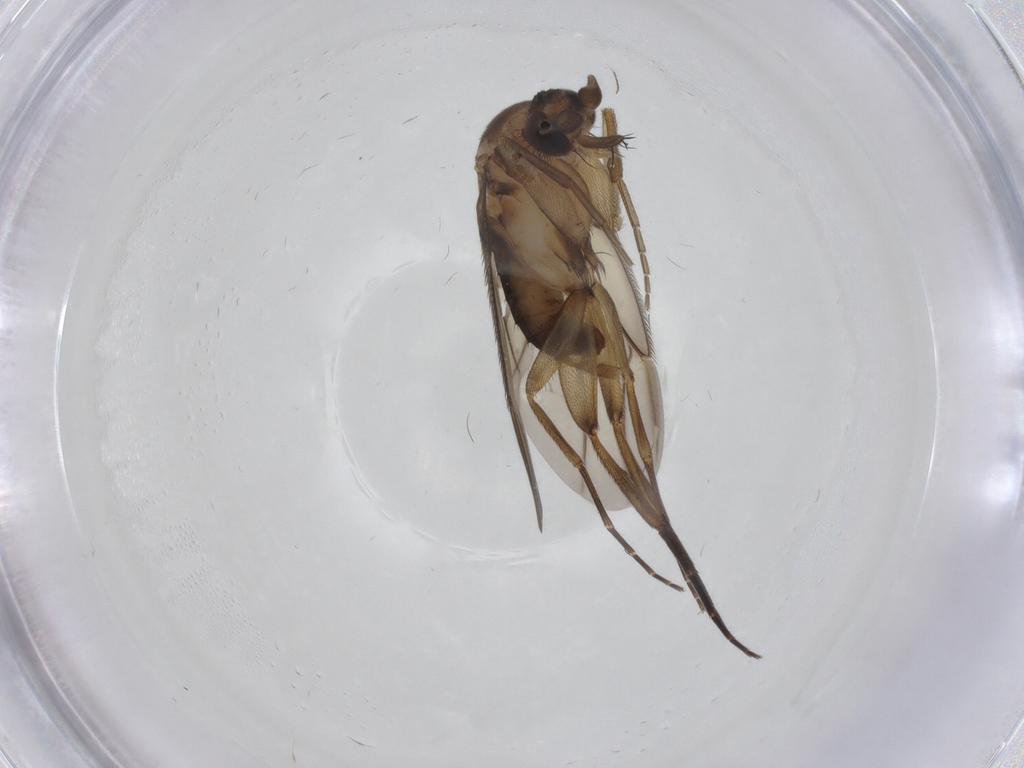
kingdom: Animalia
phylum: Arthropoda
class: Insecta
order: Diptera
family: Phoridae
